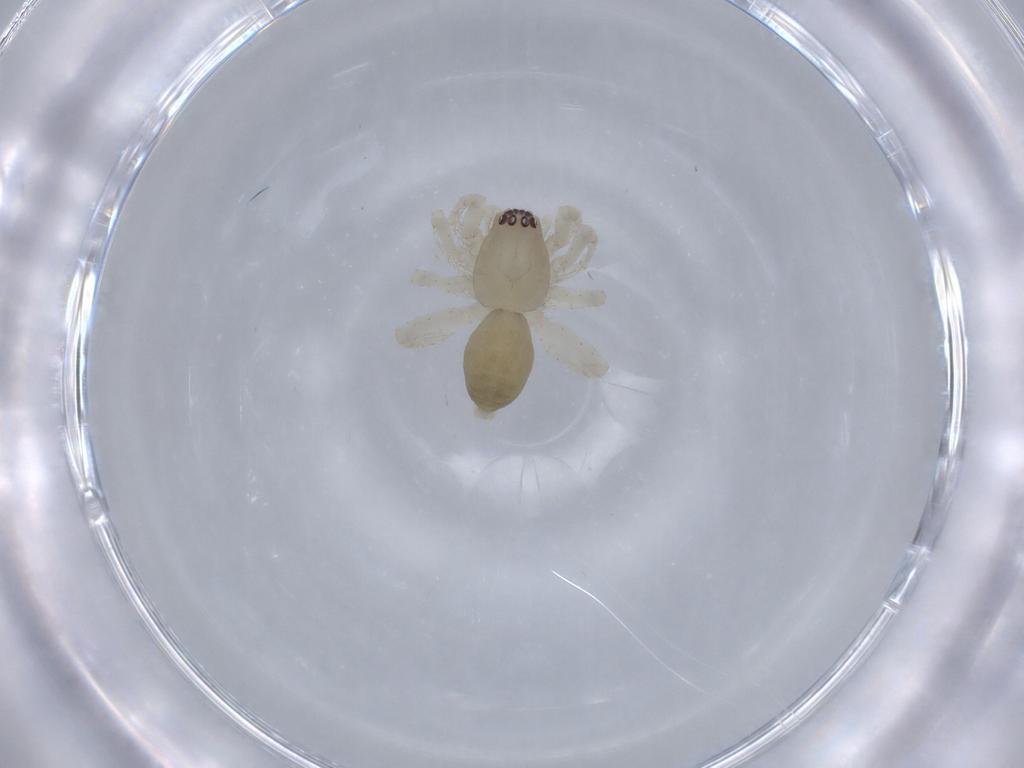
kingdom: Animalia
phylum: Arthropoda
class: Arachnida
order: Araneae
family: Anyphaenidae
